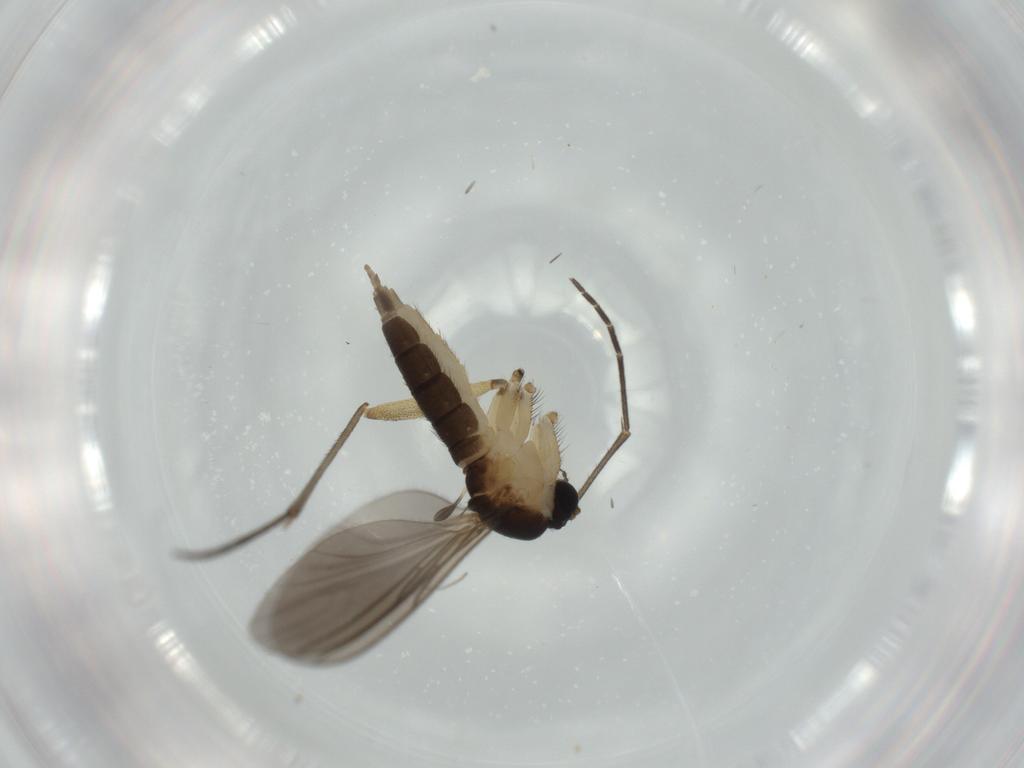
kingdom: Animalia
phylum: Arthropoda
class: Insecta
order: Diptera
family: Sciaridae
